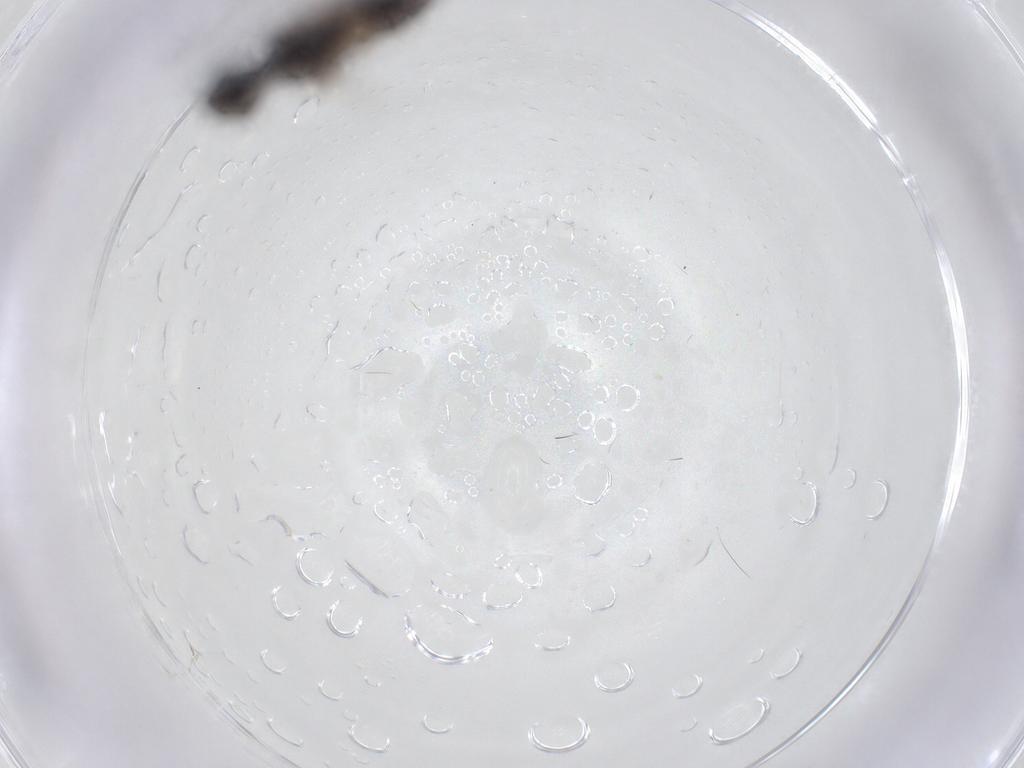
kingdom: Animalia
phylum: Arthropoda
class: Insecta
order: Hymenoptera
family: Bethylidae
